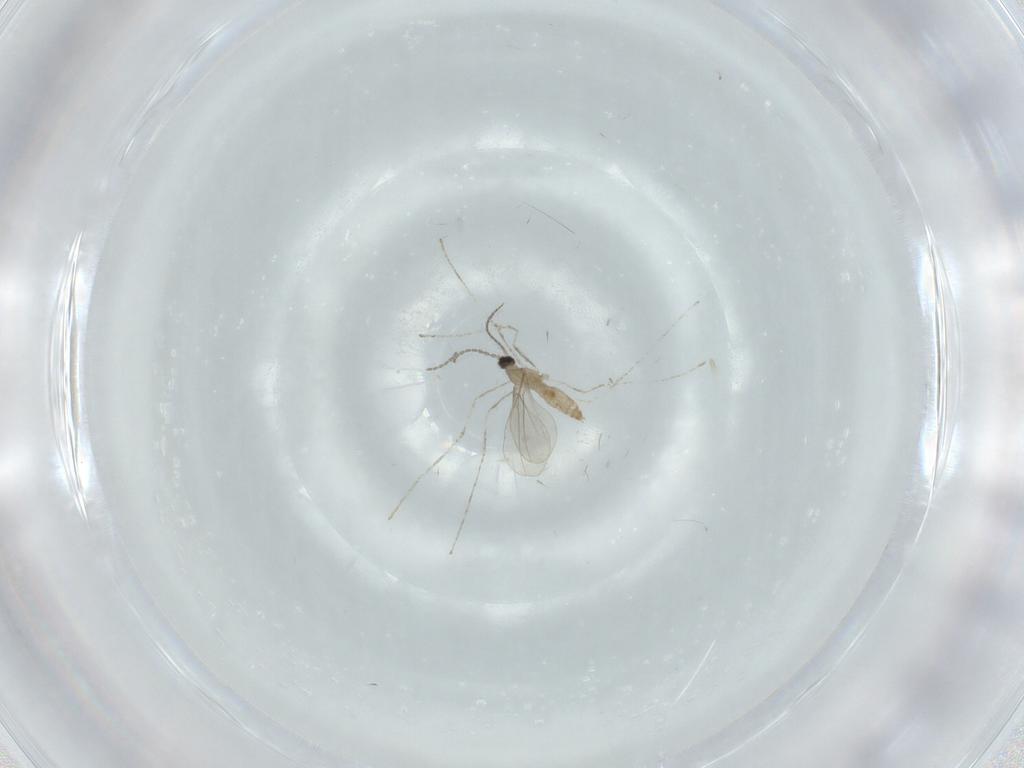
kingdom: Animalia
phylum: Arthropoda
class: Insecta
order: Diptera
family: Cecidomyiidae
